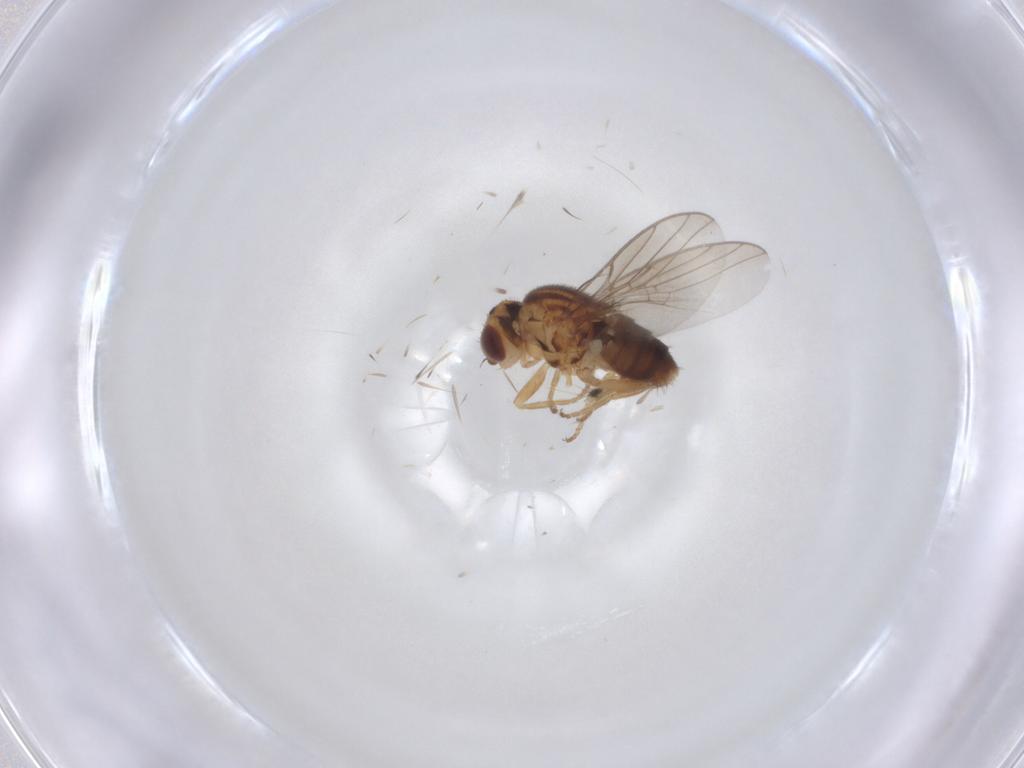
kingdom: Animalia
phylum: Arthropoda
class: Insecta
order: Diptera
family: Chloropidae
